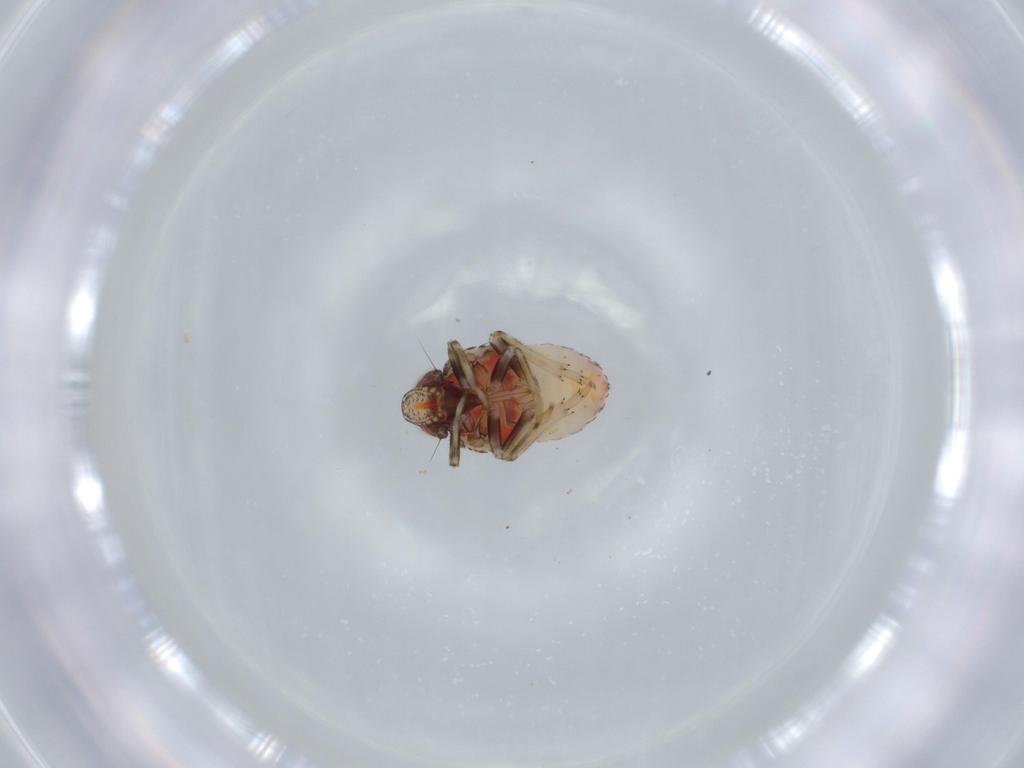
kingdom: Animalia
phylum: Arthropoda
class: Insecta
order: Hemiptera
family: Issidae
